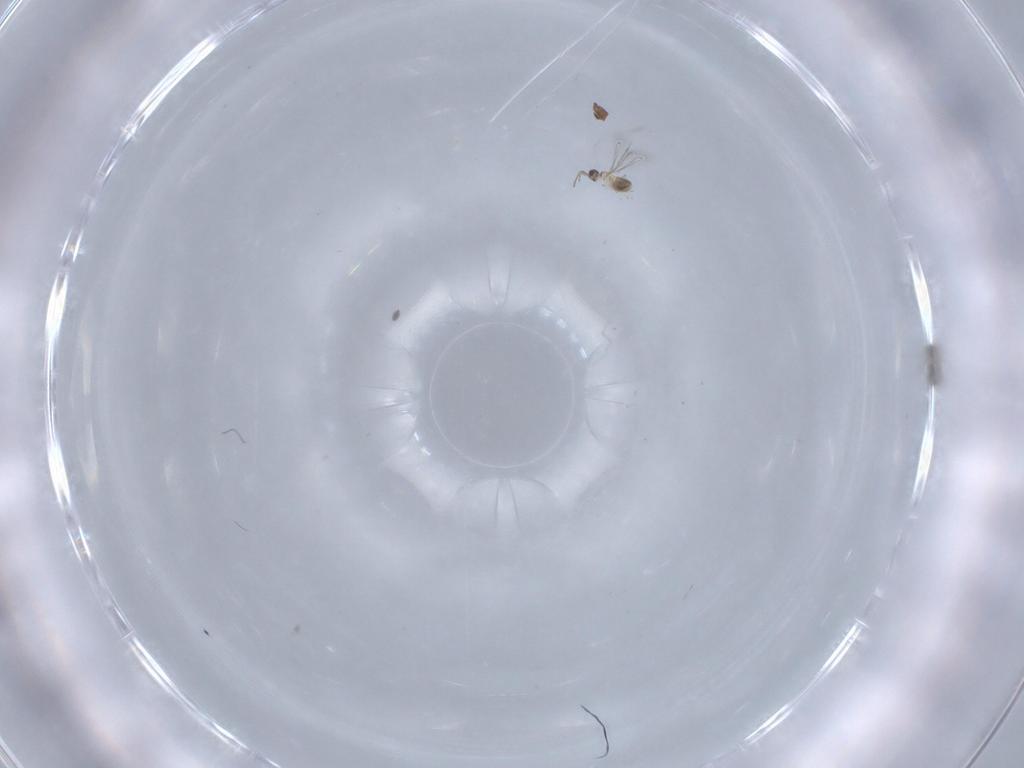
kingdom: Animalia
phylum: Arthropoda
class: Insecta
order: Hymenoptera
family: Mymaridae
